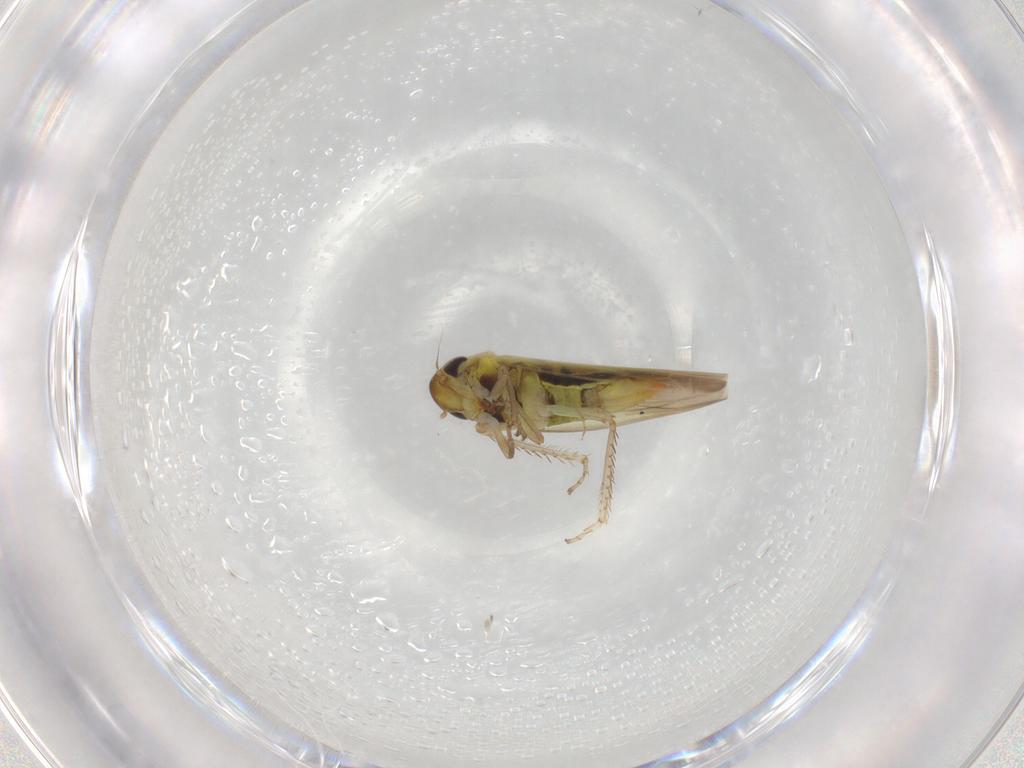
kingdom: Animalia
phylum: Arthropoda
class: Insecta
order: Hemiptera
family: Cicadellidae
